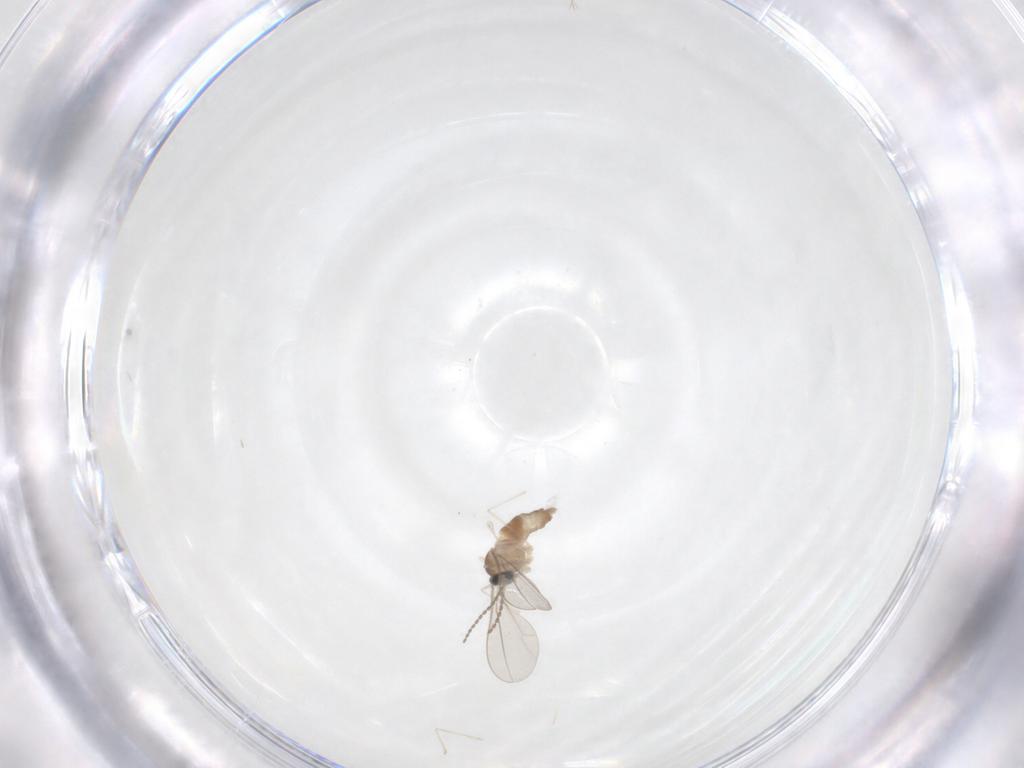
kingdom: Animalia
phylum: Arthropoda
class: Insecta
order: Diptera
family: Cecidomyiidae
